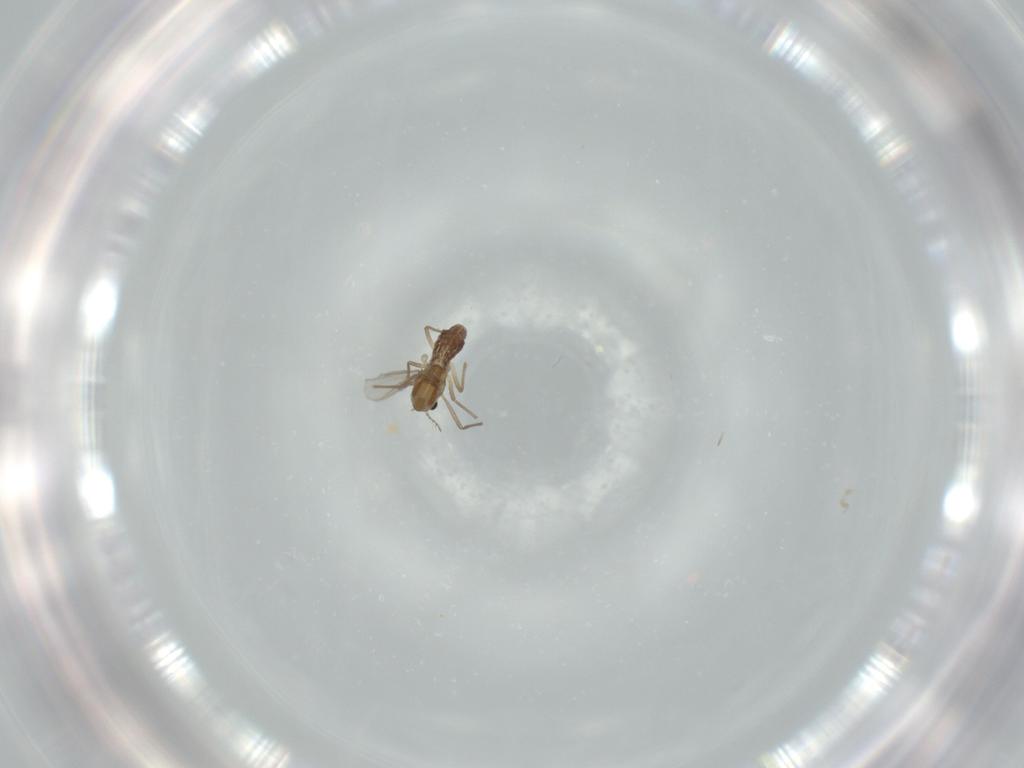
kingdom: Animalia
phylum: Arthropoda
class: Insecta
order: Diptera
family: Chironomidae
